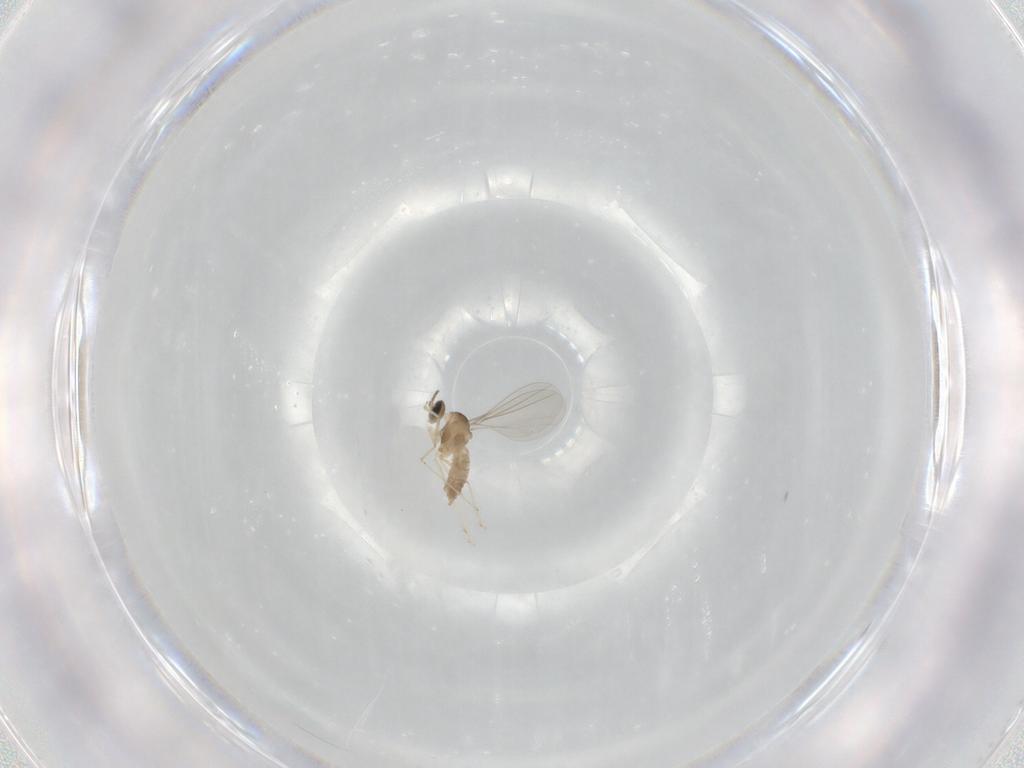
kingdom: Animalia
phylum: Arthropoda
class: Insecta
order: Diptera
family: Cecidomyiidae
